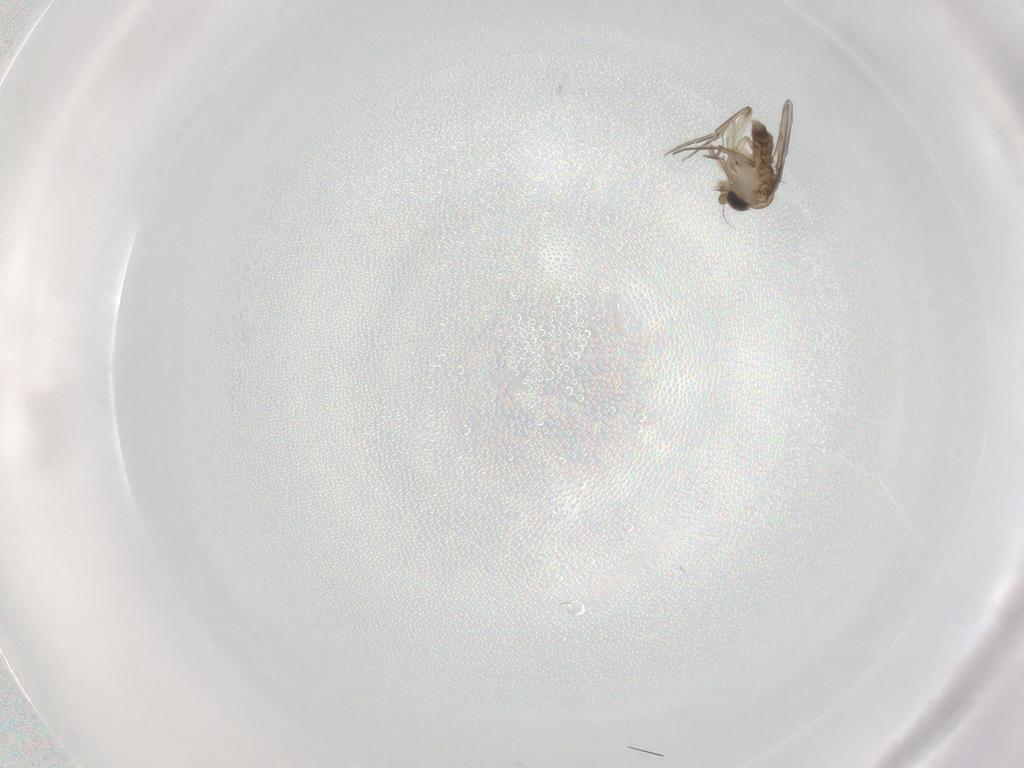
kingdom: Animalia
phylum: Arthropoda
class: Insecta
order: Diptera
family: Phoridae
